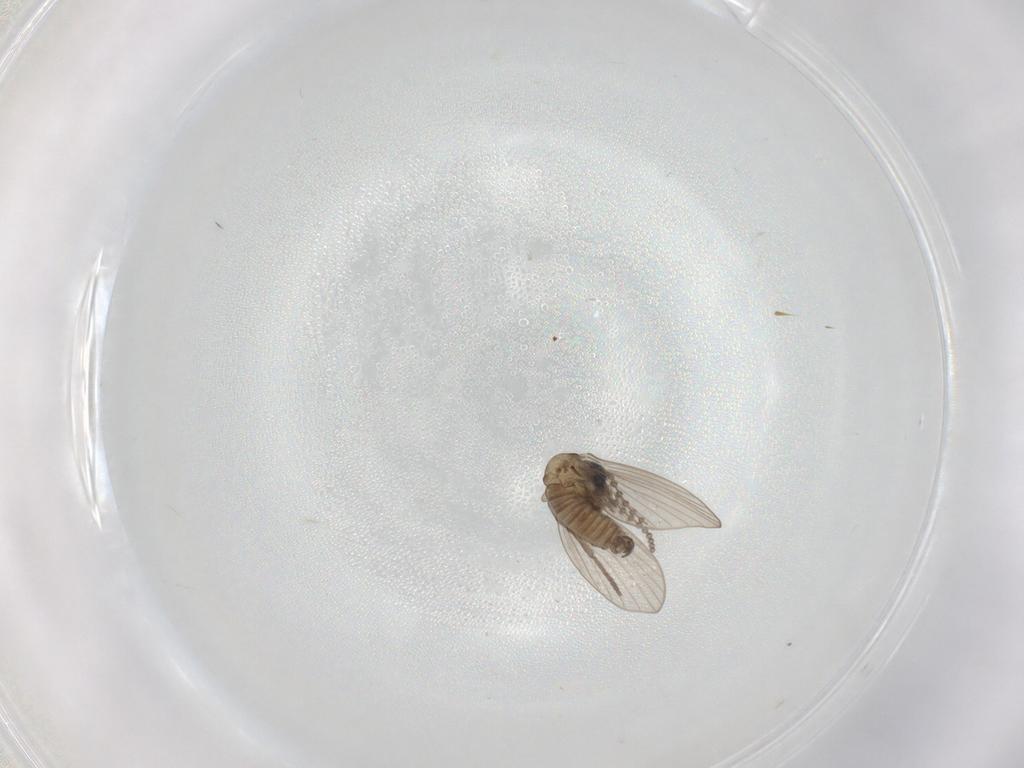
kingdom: Animalia
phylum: Arthropoda
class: Insecta
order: Diptera
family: Psychodidae
